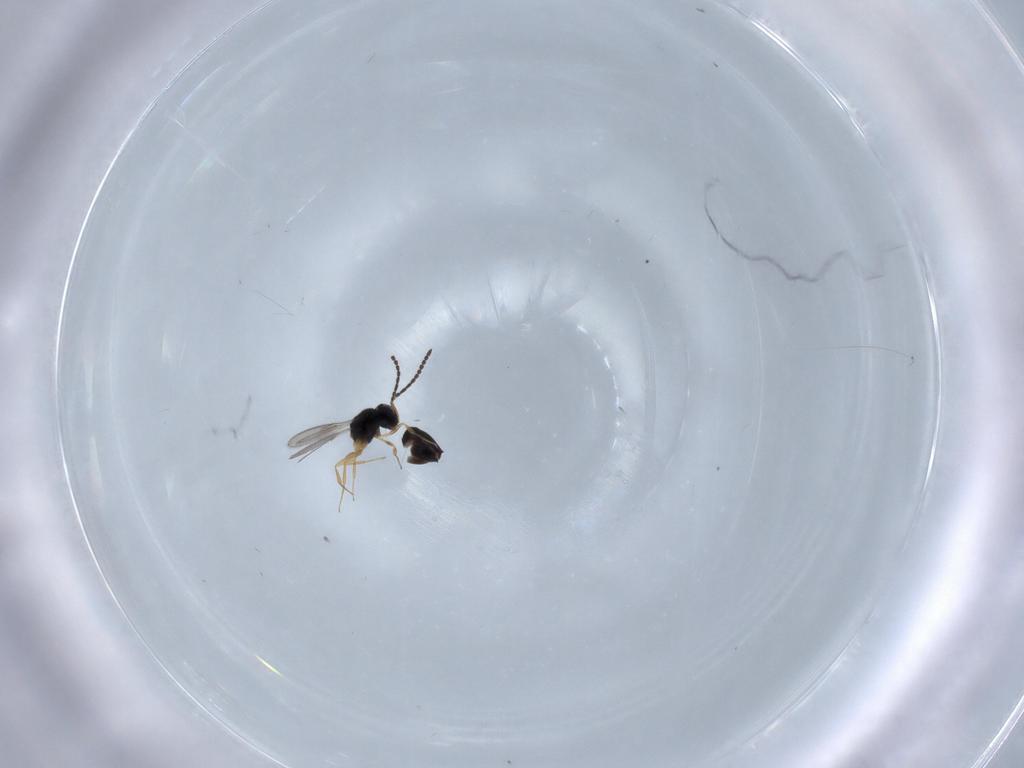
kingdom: Animalia
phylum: Arthropoda
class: Insecta
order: Hymenoptera
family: Scelionidae
